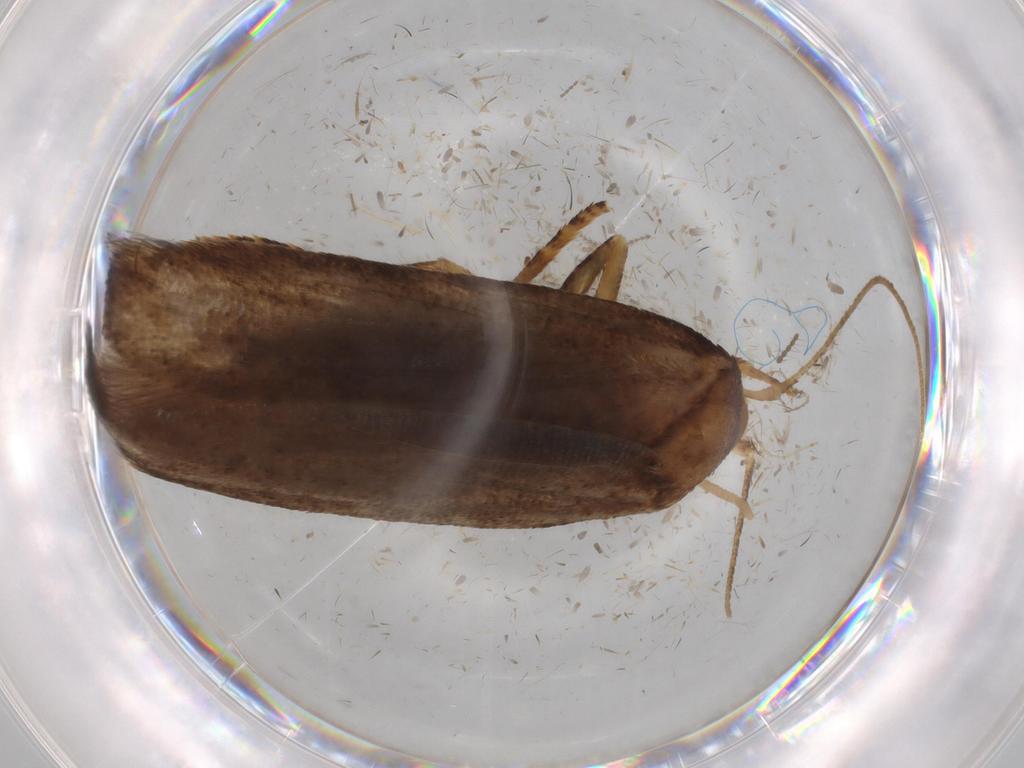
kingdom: Animalia
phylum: Arthropoda
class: Insecta
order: Lepidoptera
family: Blastobasidae
